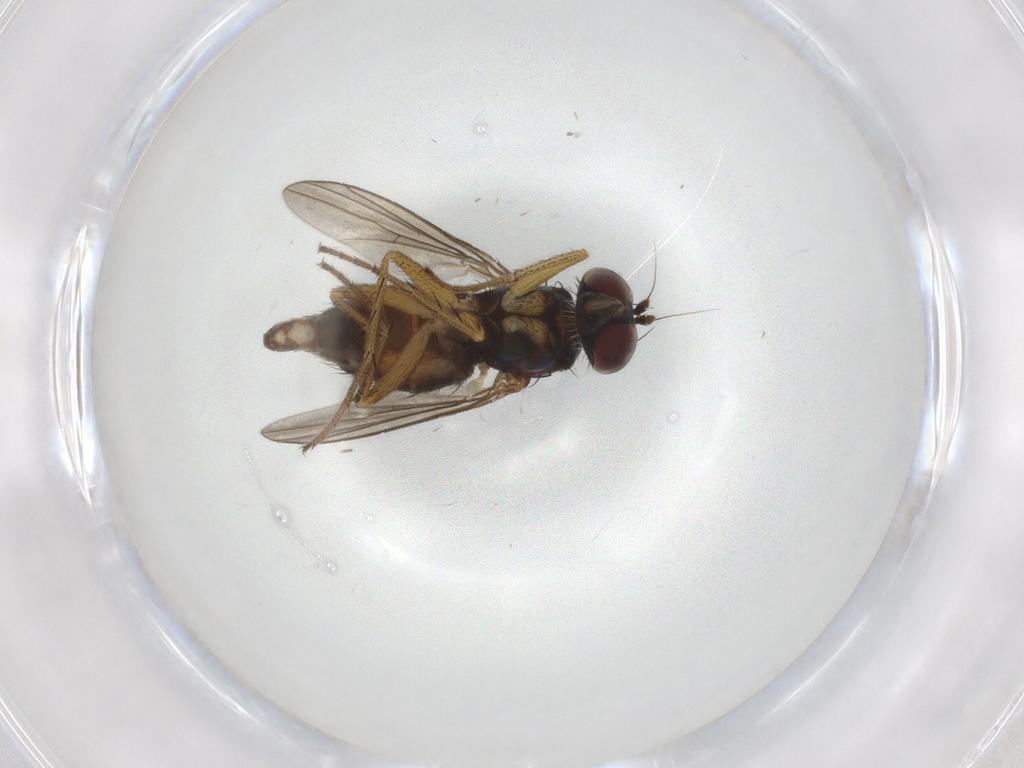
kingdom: Animalia
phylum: Arthropoda
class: Insecta
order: Diptera
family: Dolichopodidae
